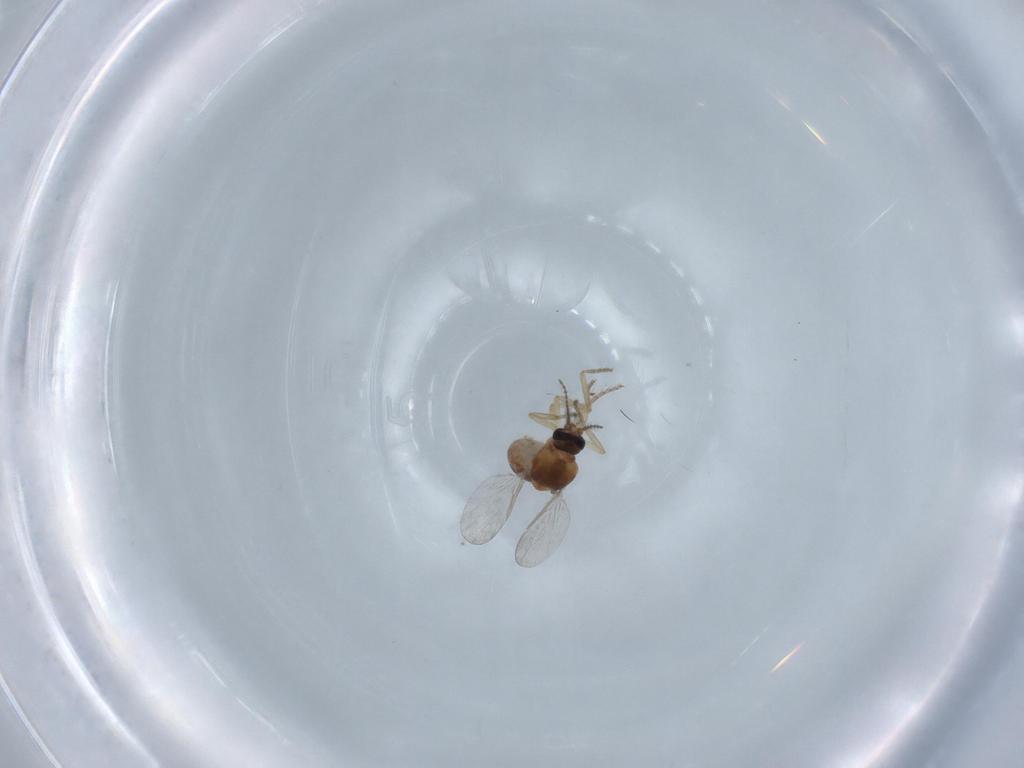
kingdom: Animalia
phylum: Arthropoda
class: Insecta
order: Diptera
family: Ceratopogonidae
